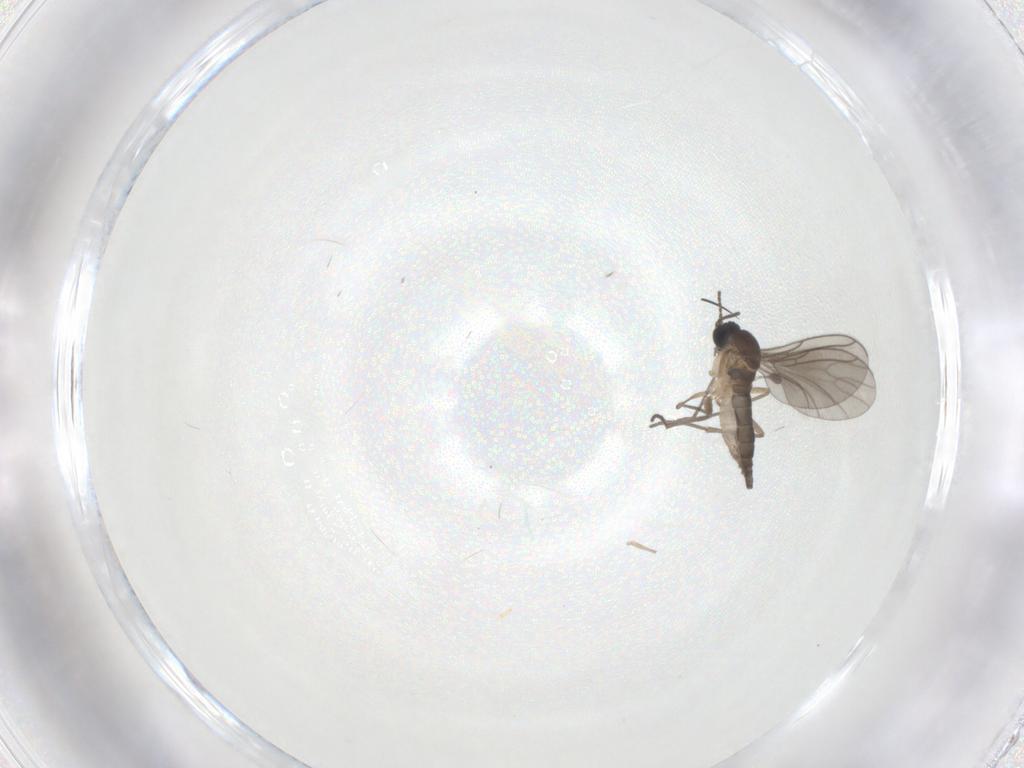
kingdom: Animalia
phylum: Arthropoda
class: Insecta
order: Diptera
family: Sciaridae
